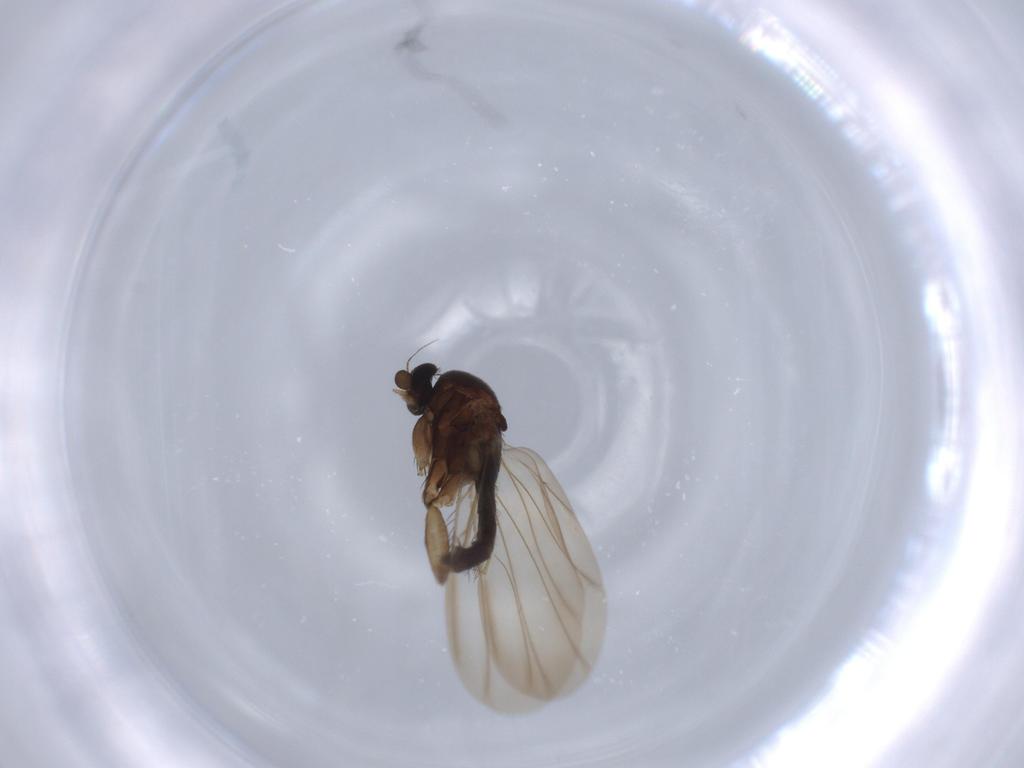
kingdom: Animalia
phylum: Arthropoda
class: Insecta
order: Diptera
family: Phoridae
